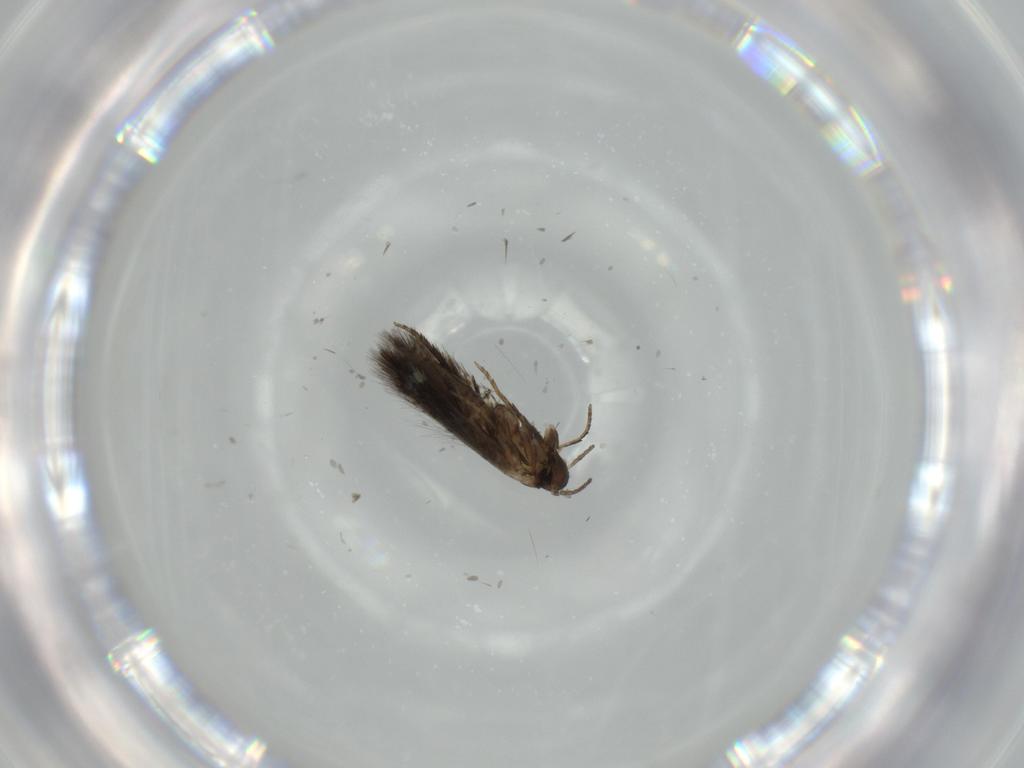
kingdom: Animalia
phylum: Arthropoda
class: Insecta
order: Lepidoptera
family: Heliozelidae
